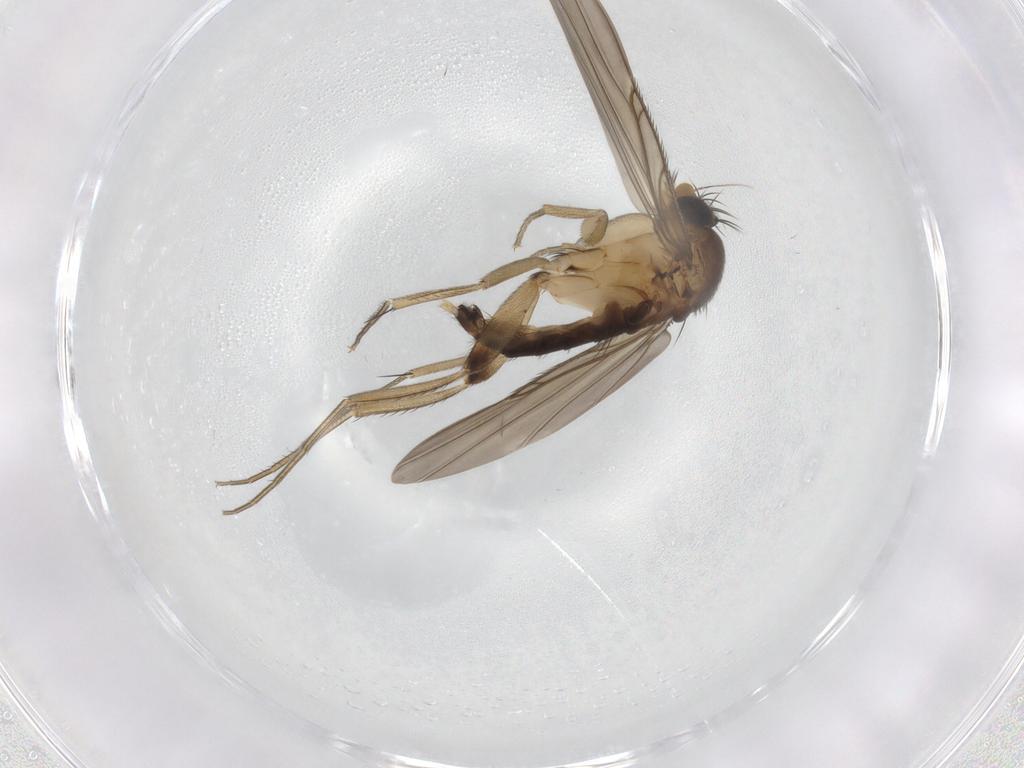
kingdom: Animalia
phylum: Arthropoda
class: Insecta
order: Diptera
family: Phoridae
